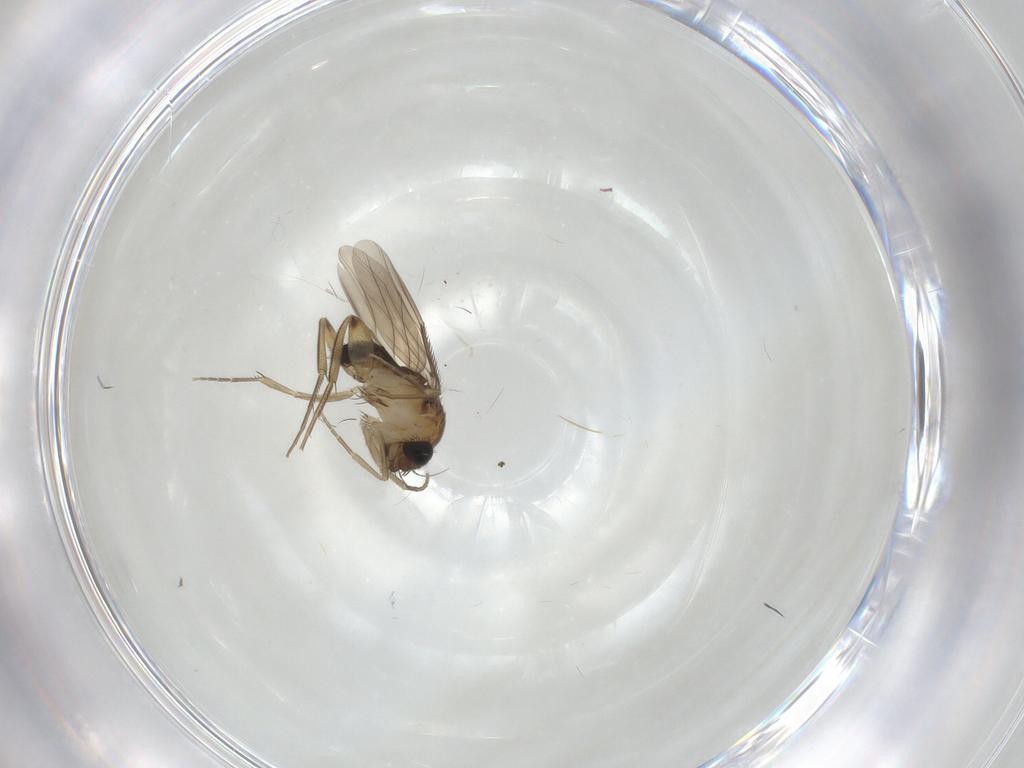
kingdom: Animalia
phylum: Arthropoda
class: Insecta
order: Diptera
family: Phoridae
